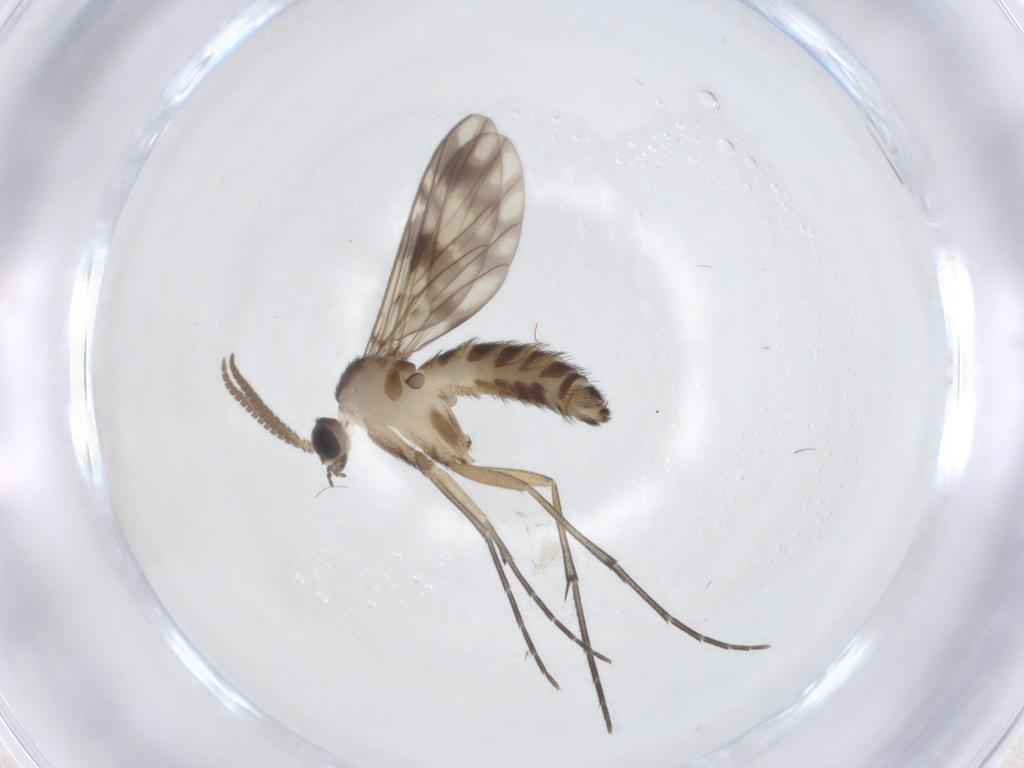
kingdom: Animalia
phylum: Arthropoda
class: Insecta
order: Diptera
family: Keroplatidae
